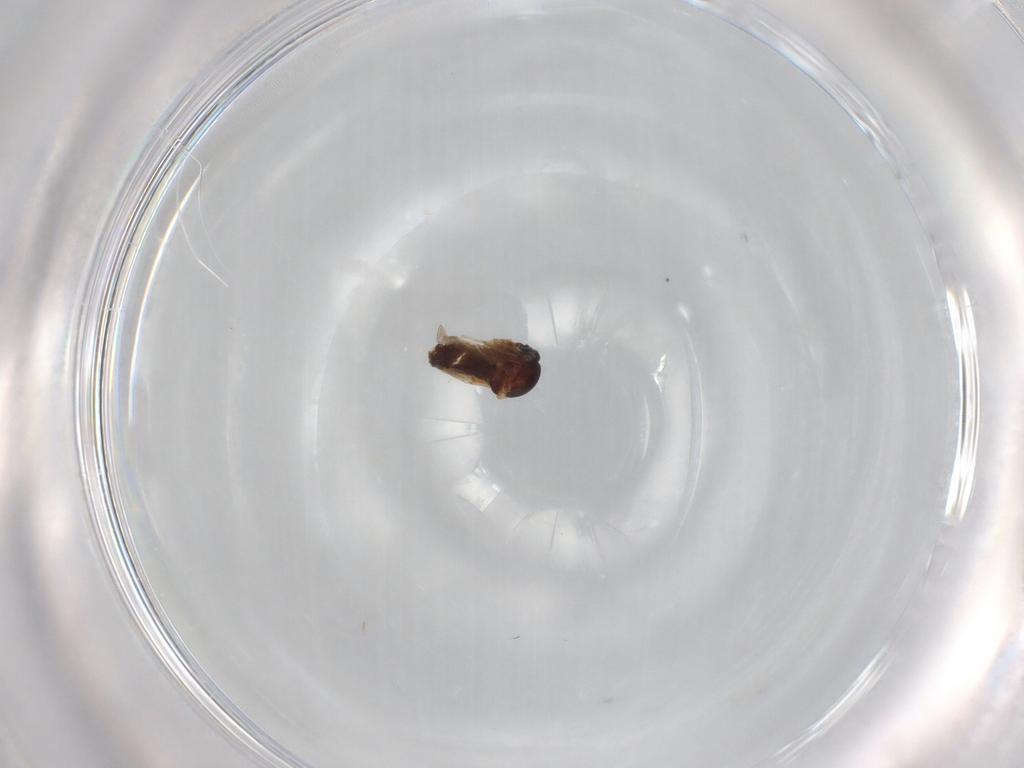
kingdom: Animalia
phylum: Arthropoda
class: Insecta
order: Diptera
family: Ceratopogonidae
